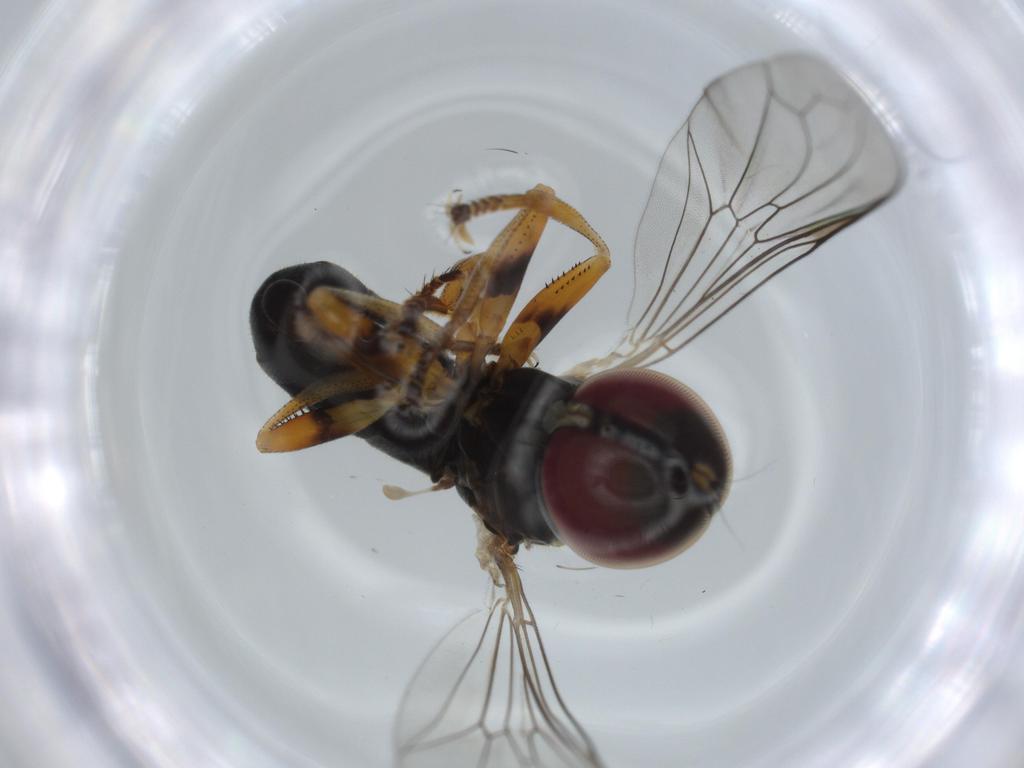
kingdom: Animalia
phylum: Arthropoda
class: Insecta
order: Diptera
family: Pipunculidae
